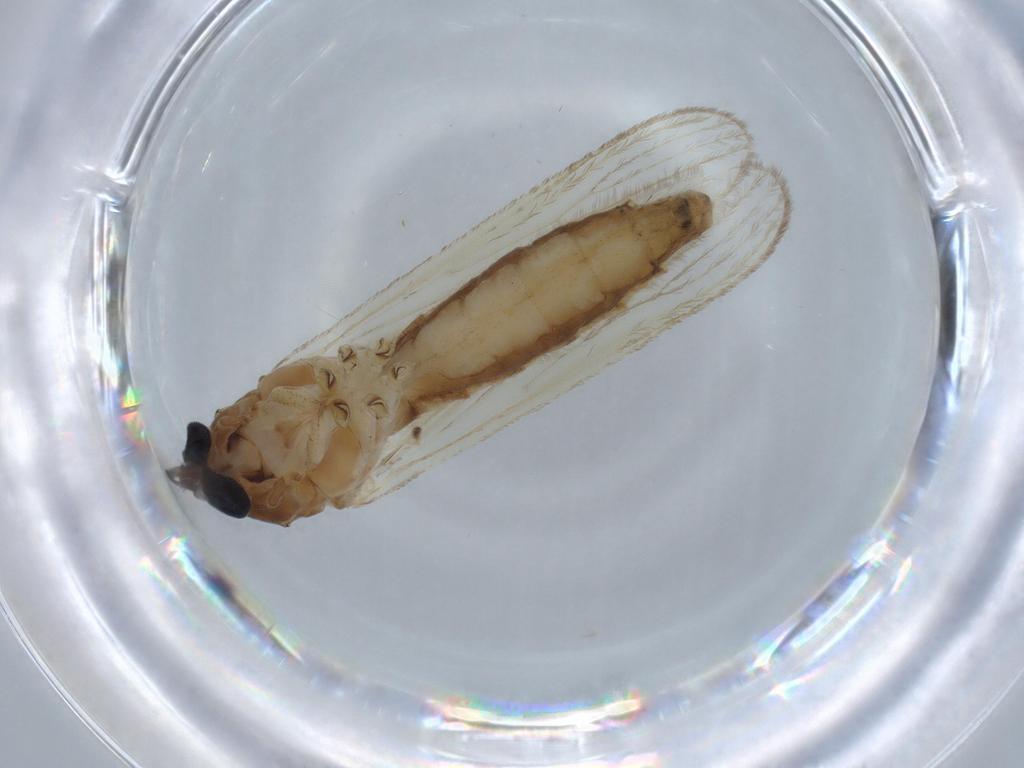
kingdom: Animalia
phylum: Arthropoda
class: Insecta
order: Diptera
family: Culicidae
